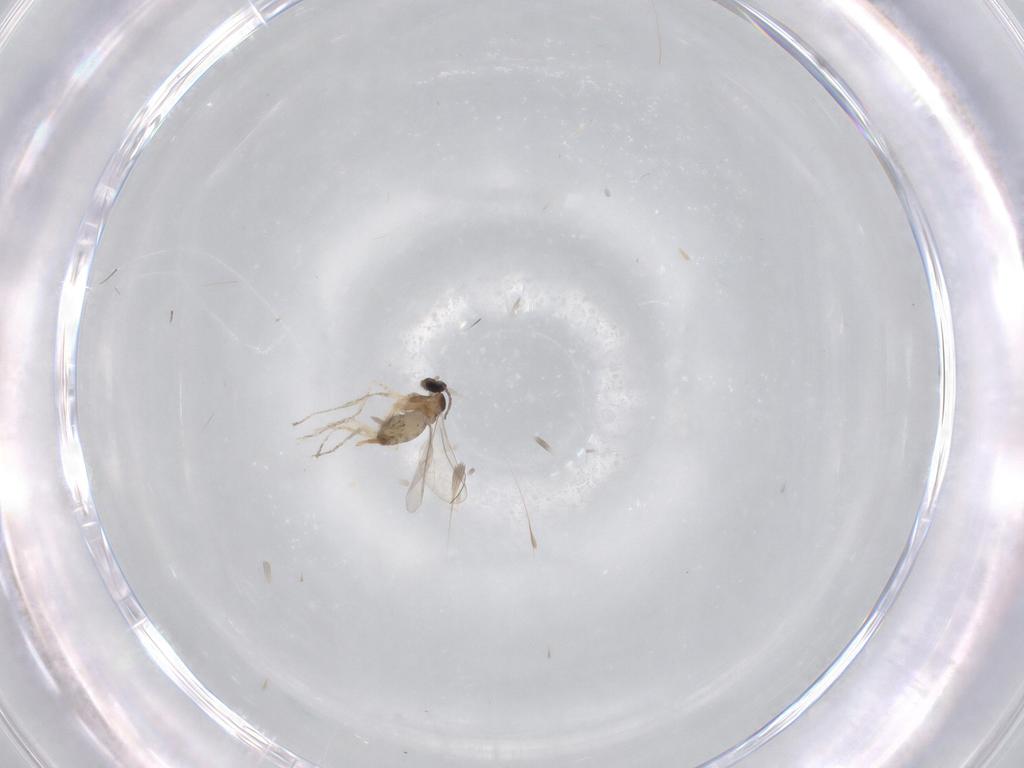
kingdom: Animalia
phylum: Arthropoda
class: Insecta
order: Diptera
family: Cecidomyiidae
